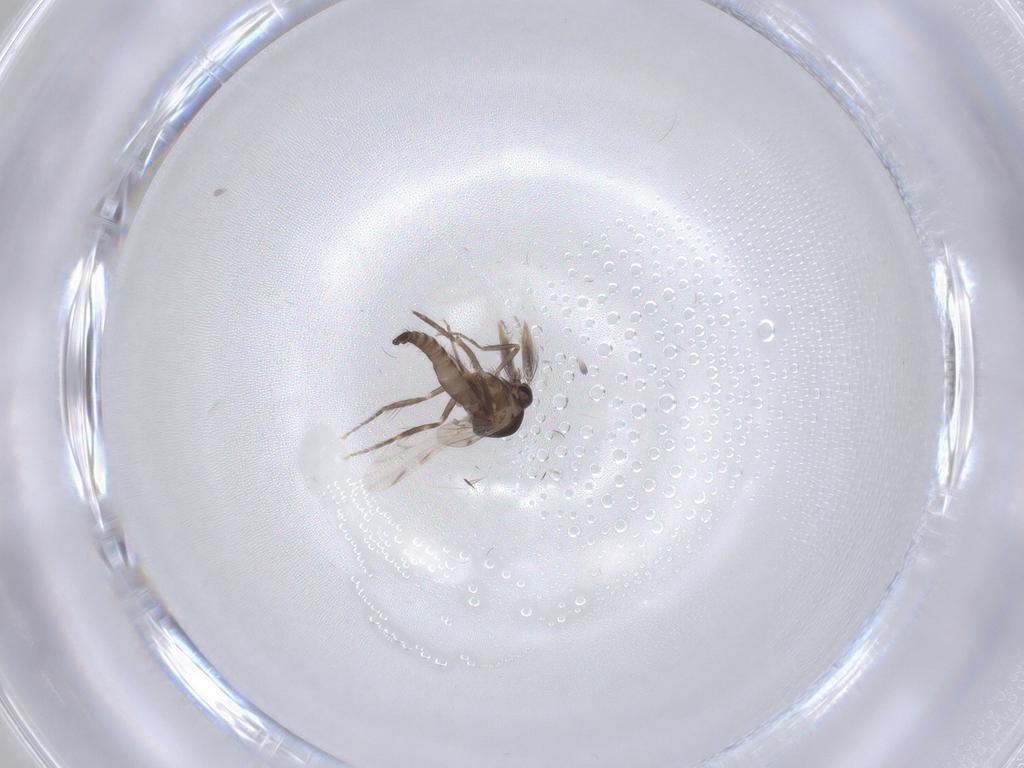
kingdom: Animalia
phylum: Arthropoda
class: Insecta
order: Diptera
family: Ceratopogonidae
